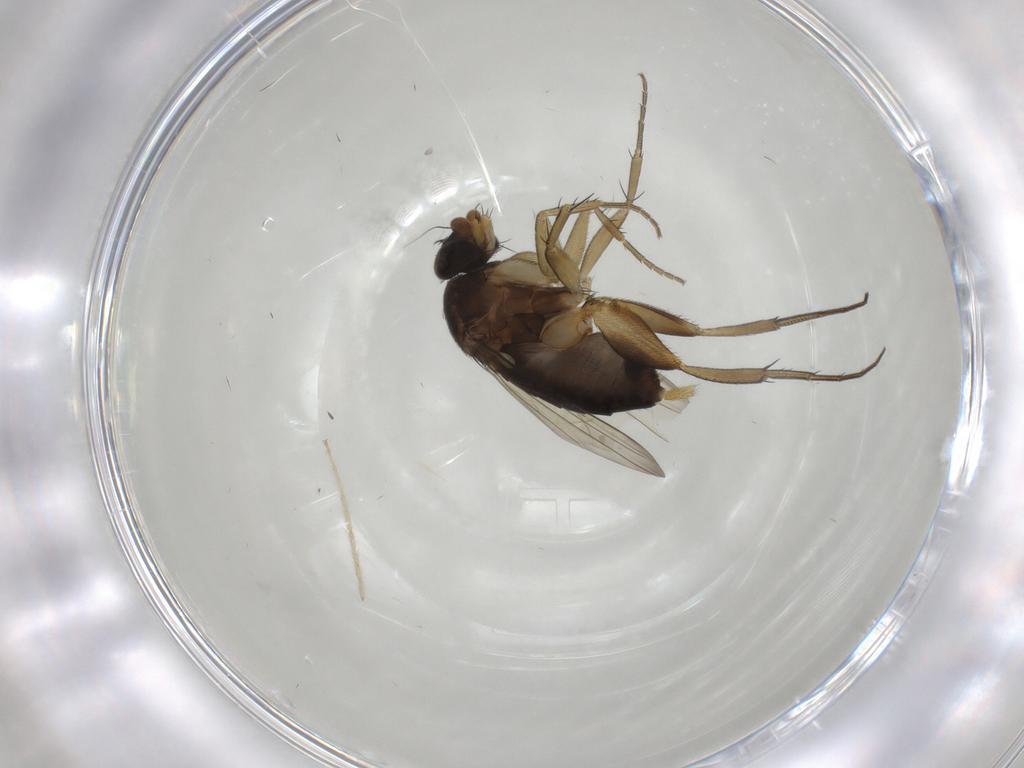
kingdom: Animalia
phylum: Arthropoda
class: Insecta
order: Diptera
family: Phoridae
